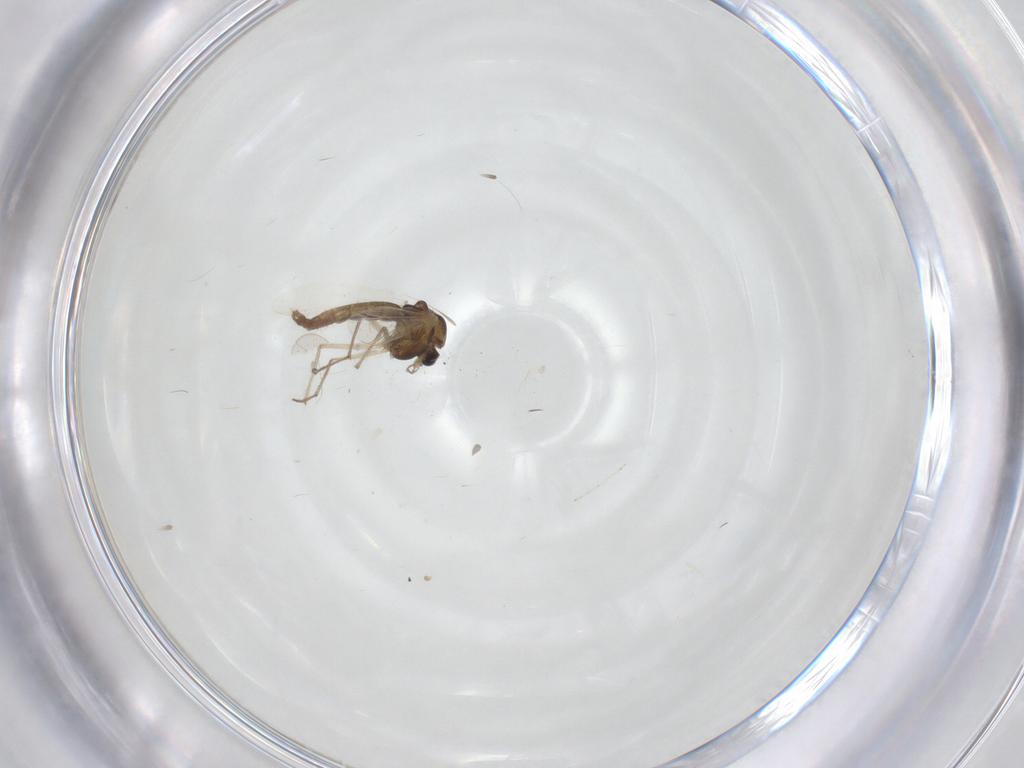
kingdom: Animalia
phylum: Arthropoda
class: Insecta
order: Diptera
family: Chironomidae
